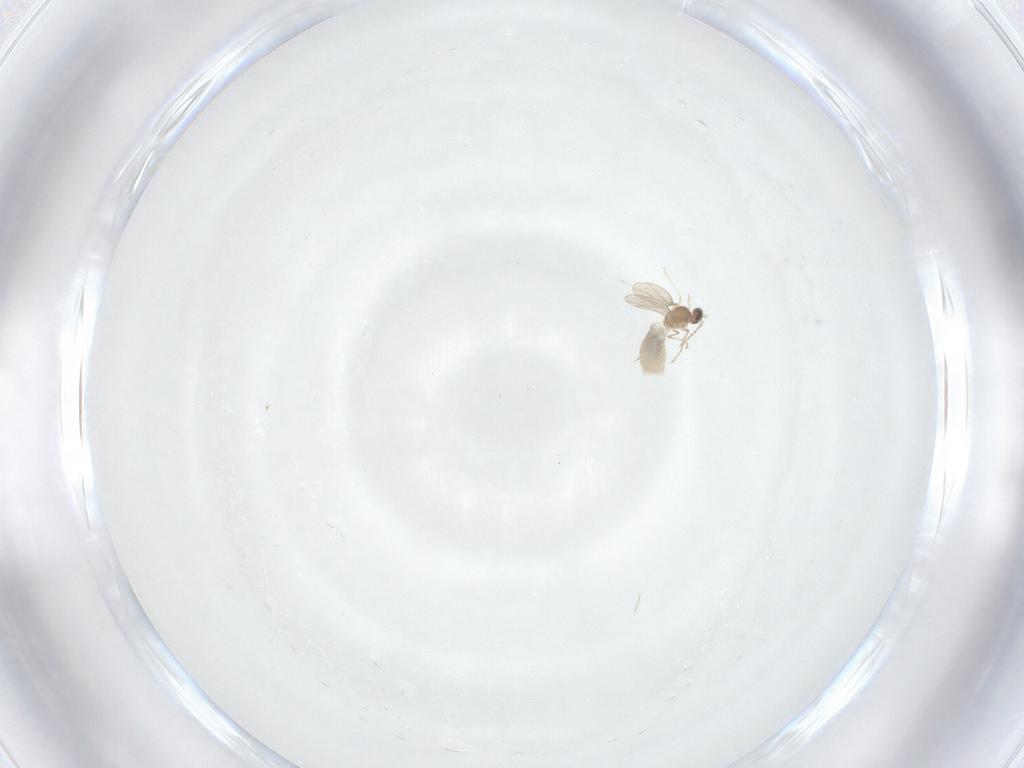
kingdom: Animalia
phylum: Arthropoda
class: Insecta
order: Diptera
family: Cecidomyiidae
